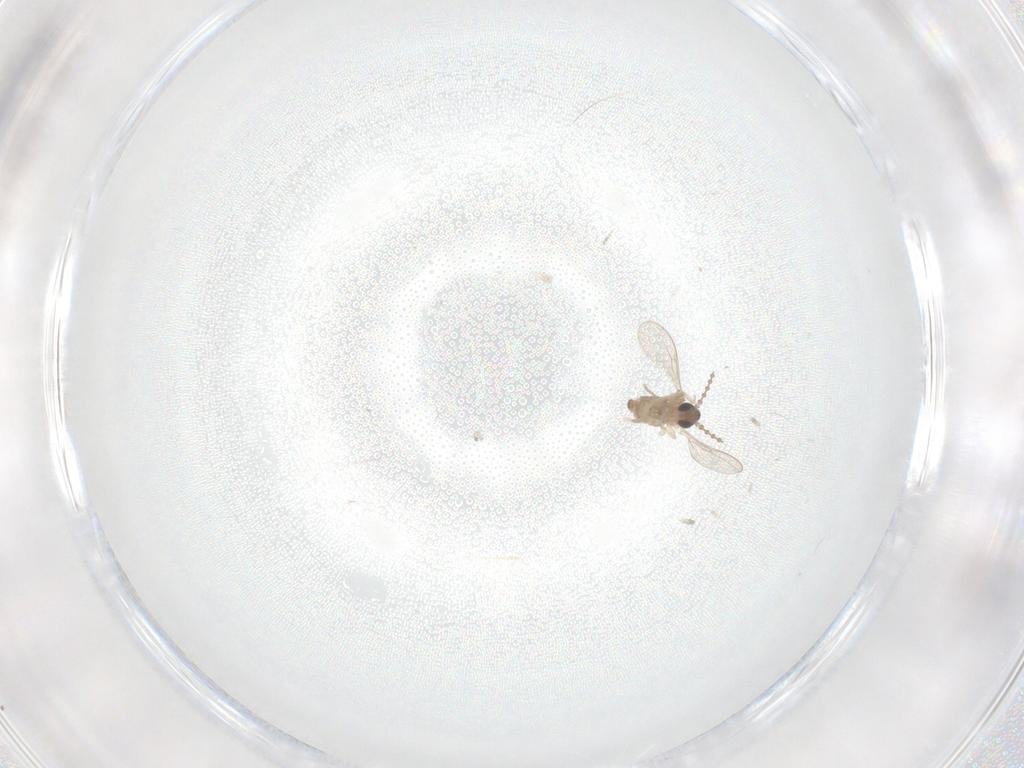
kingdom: Animalia
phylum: Arthropoda
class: Insecta
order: Diptera
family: Cecidomyiidae
